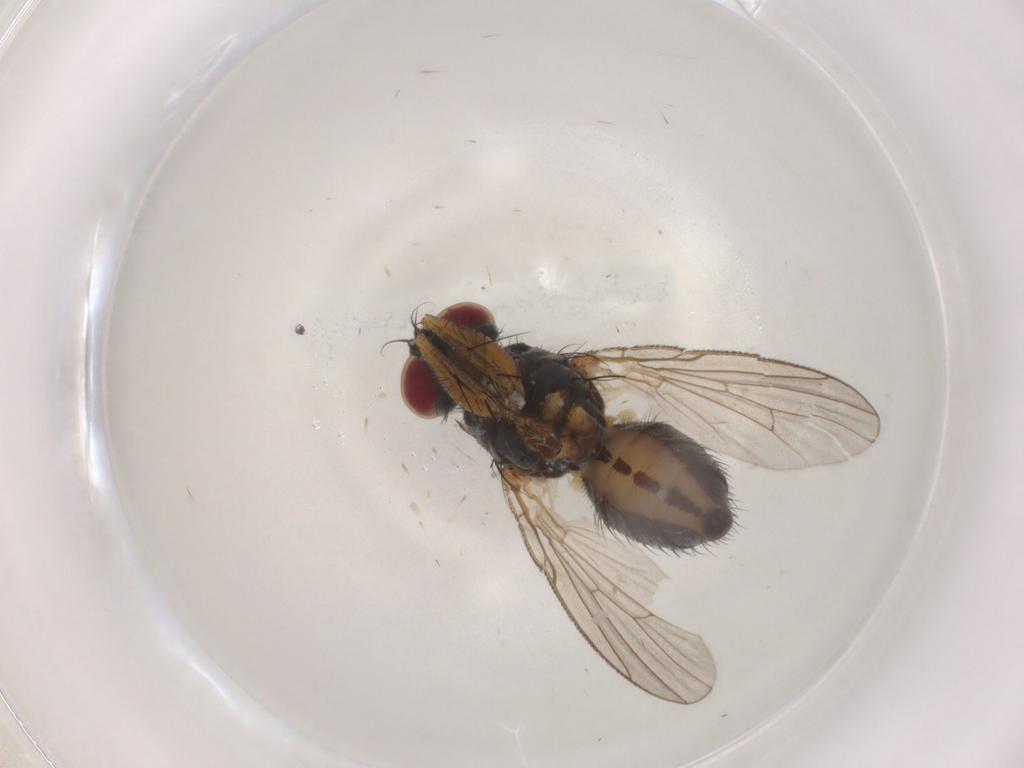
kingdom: Animalia
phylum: Arthropoda
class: Insecta
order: Diptera
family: Muscidae
